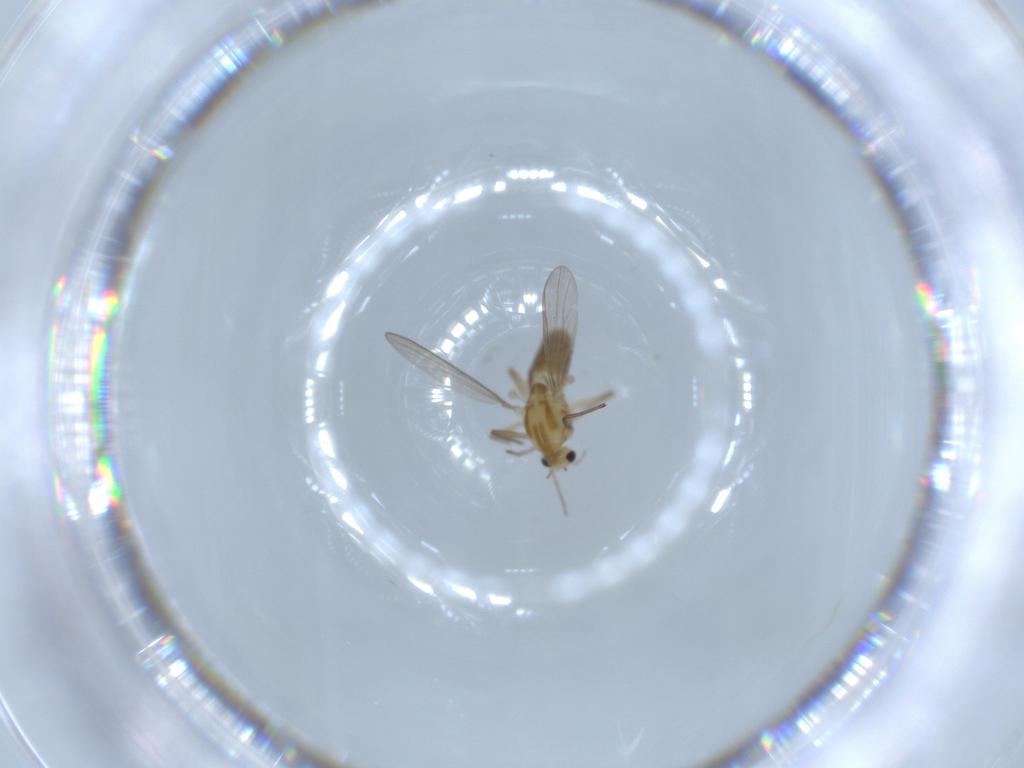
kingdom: Animalia
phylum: Arthropoda
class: Insecta
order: Diptera
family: Chironomidae
